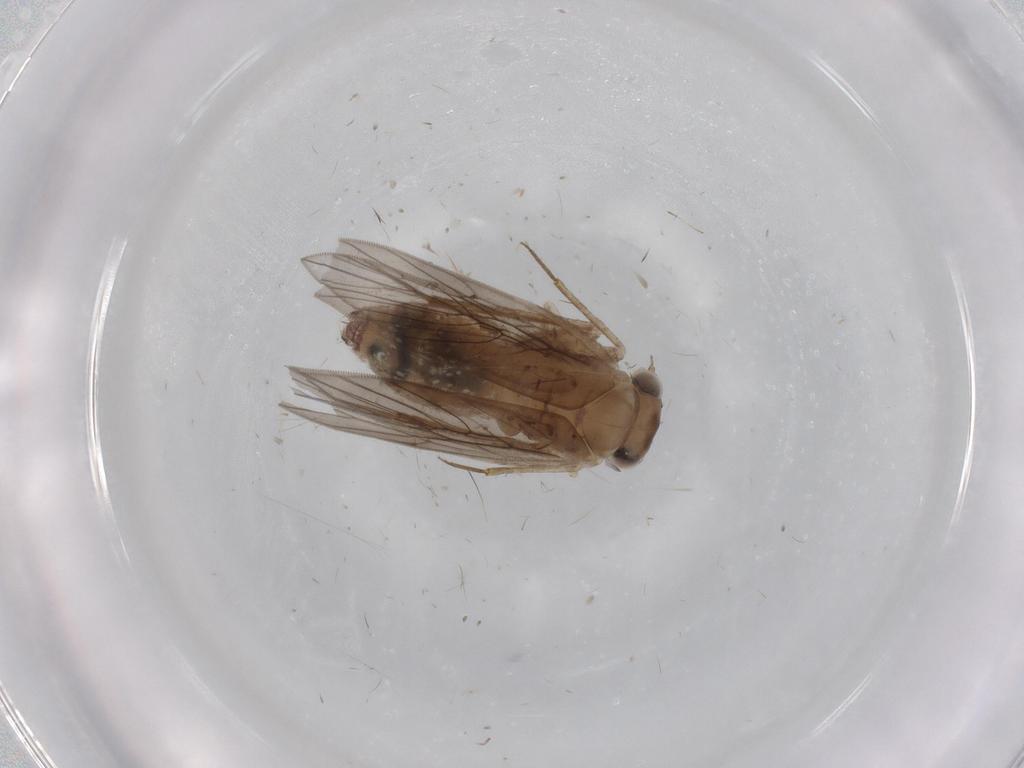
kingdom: Animalia
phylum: Arthropoda
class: Insecta
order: Psocodea
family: Lepidopsocidae
